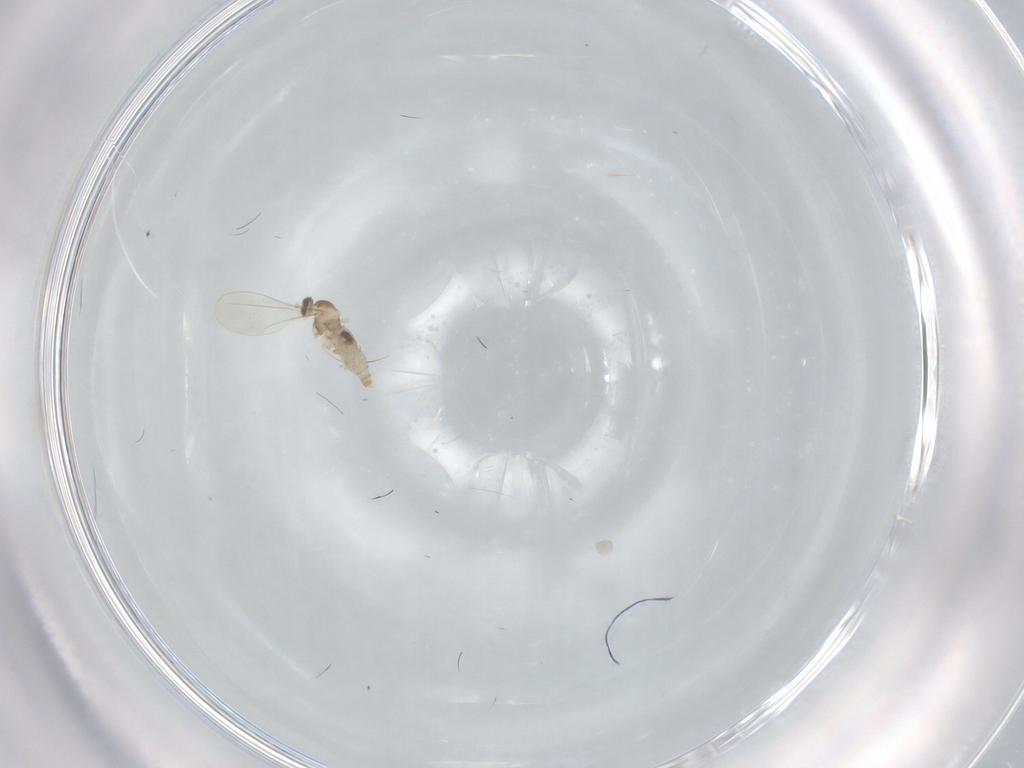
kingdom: Animalia
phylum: Arthropoda
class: Insecta
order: Diptera
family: Cecidomyiidae
